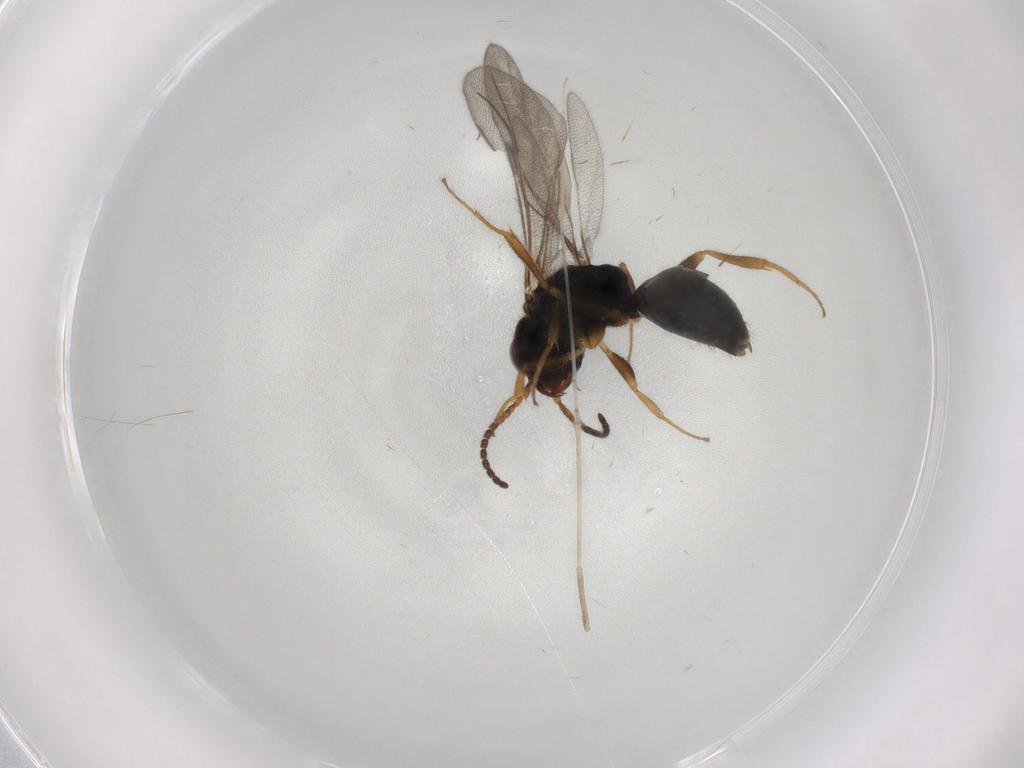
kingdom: Animalia
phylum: Arthropoda
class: Insecta
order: Hymenoptera
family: Bethylidae
